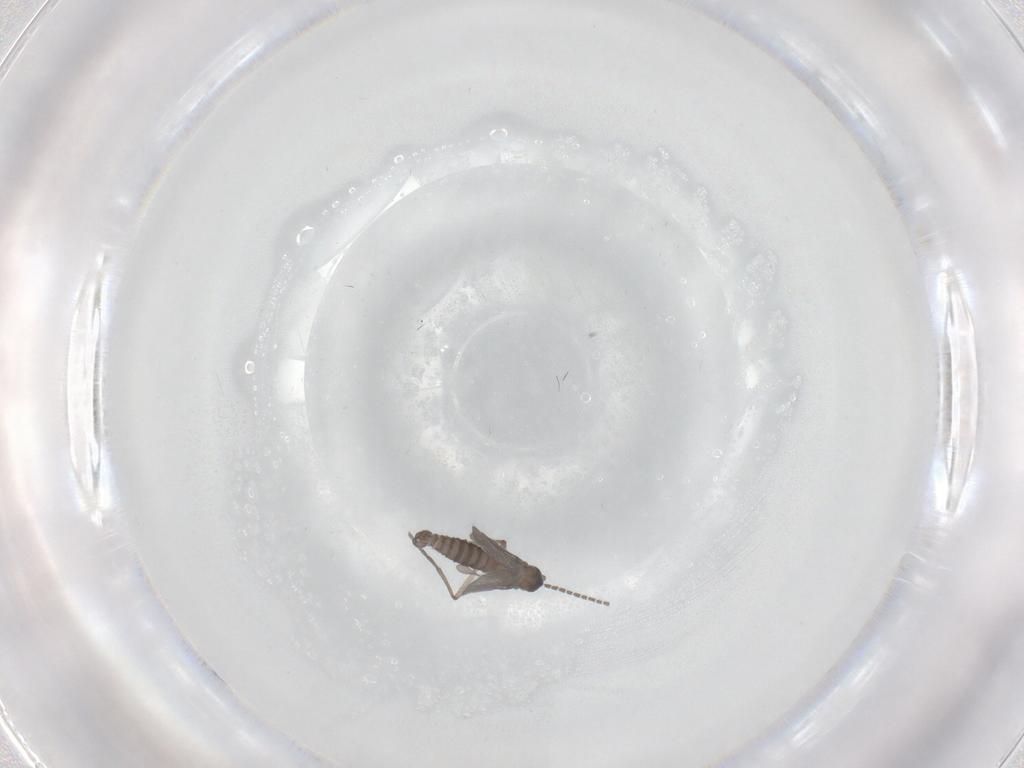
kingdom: Animalia
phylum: Arthropoda
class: Insecta
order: Diptera
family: Sciaridae
